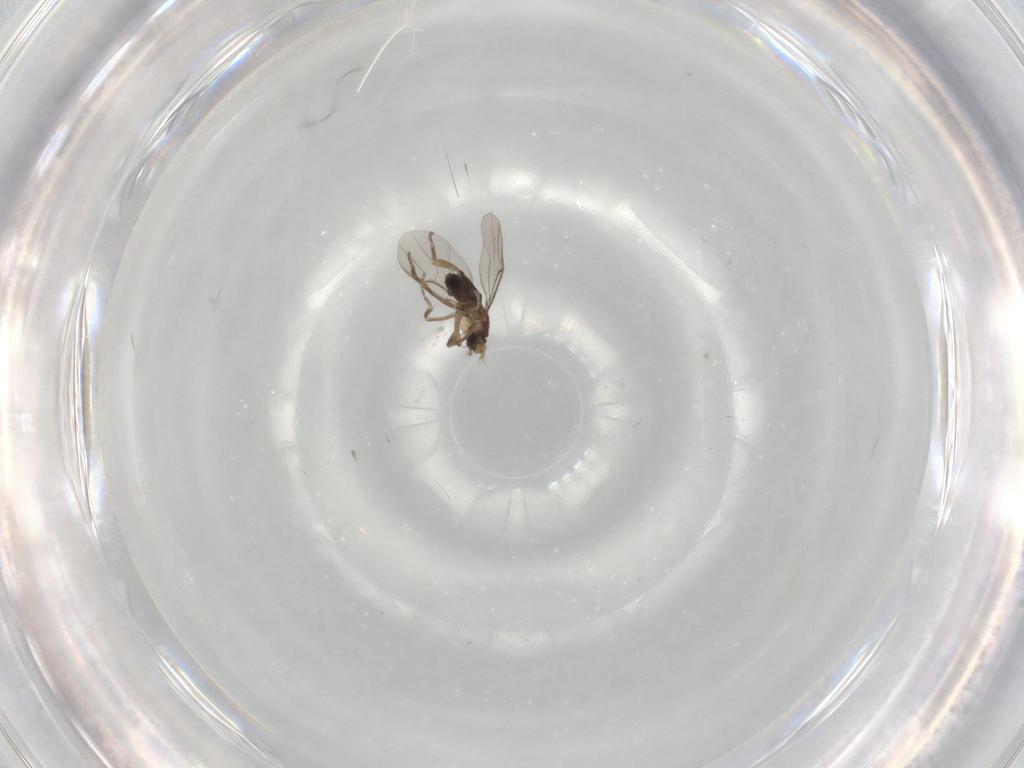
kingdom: Animalia
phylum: Arthropoda
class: Insecta
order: Diptera
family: Phoridae
